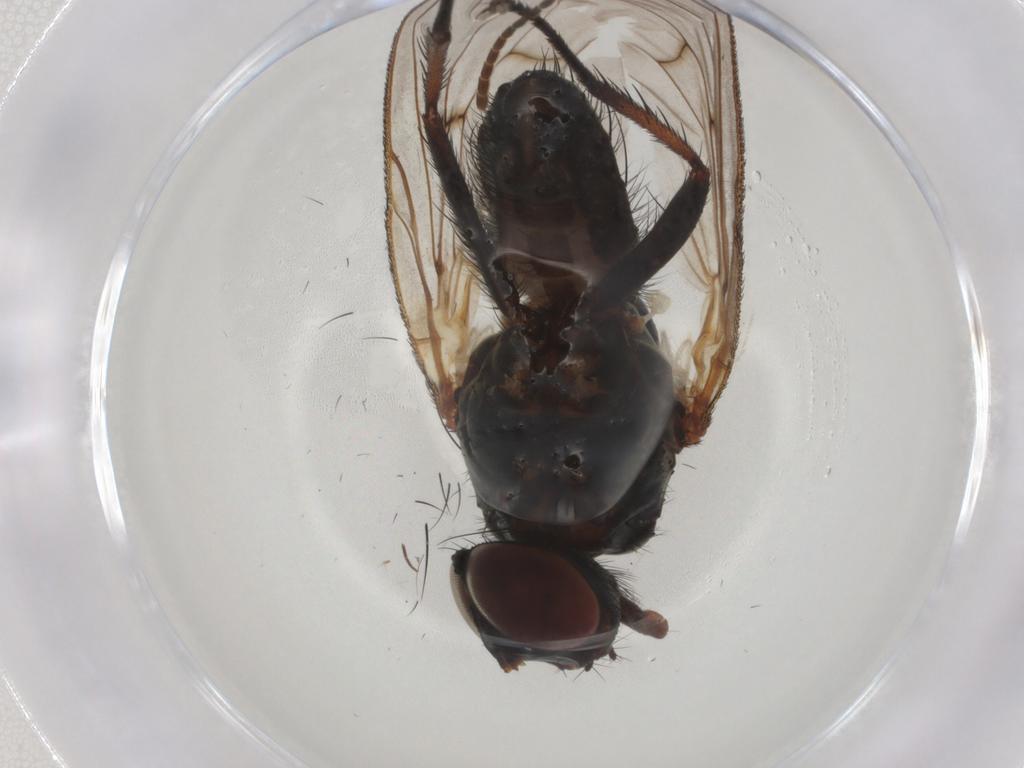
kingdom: Animalia
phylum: Arthropoda
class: Insecta
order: Diptera
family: Anthomyiidae
